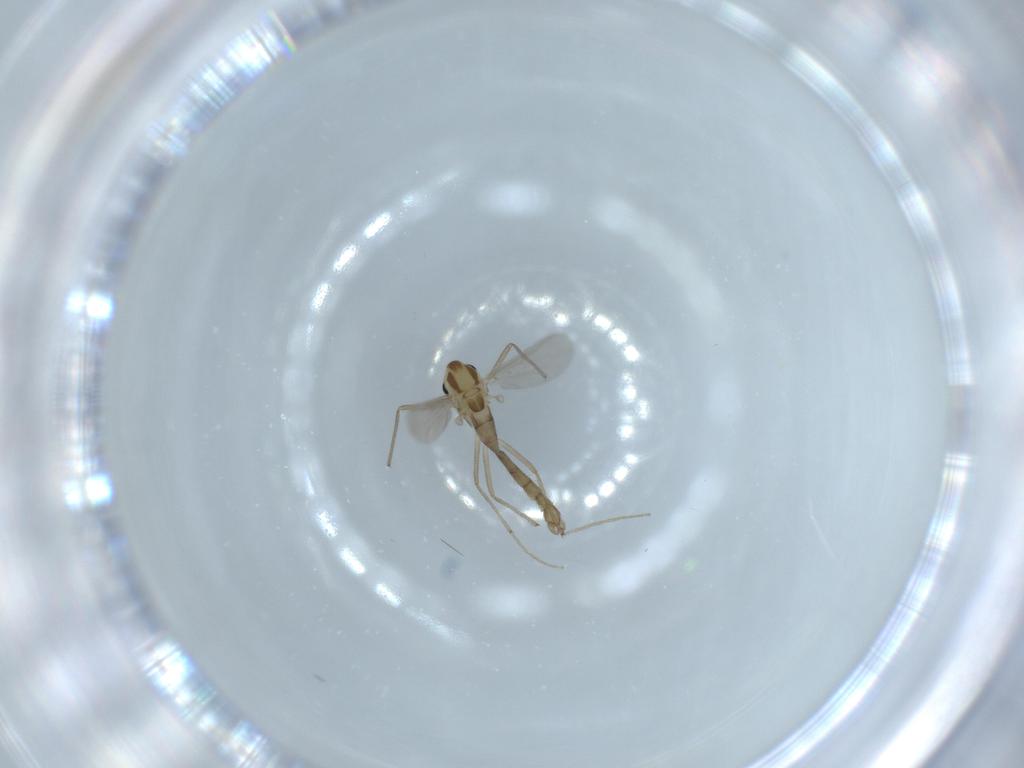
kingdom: Animalia
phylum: Arthropoda
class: Insecta
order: Diptera
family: Chironomidae
